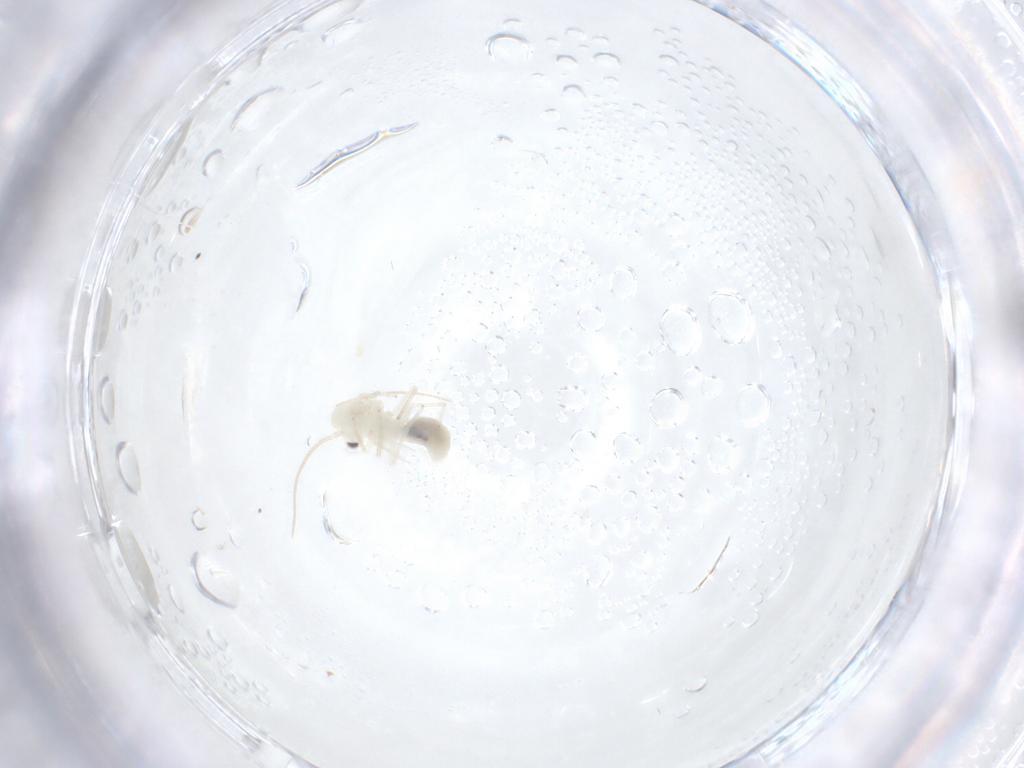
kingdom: Animalia
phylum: Arthropoda
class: Insecta
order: Psocodea
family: Caeciliusidae
